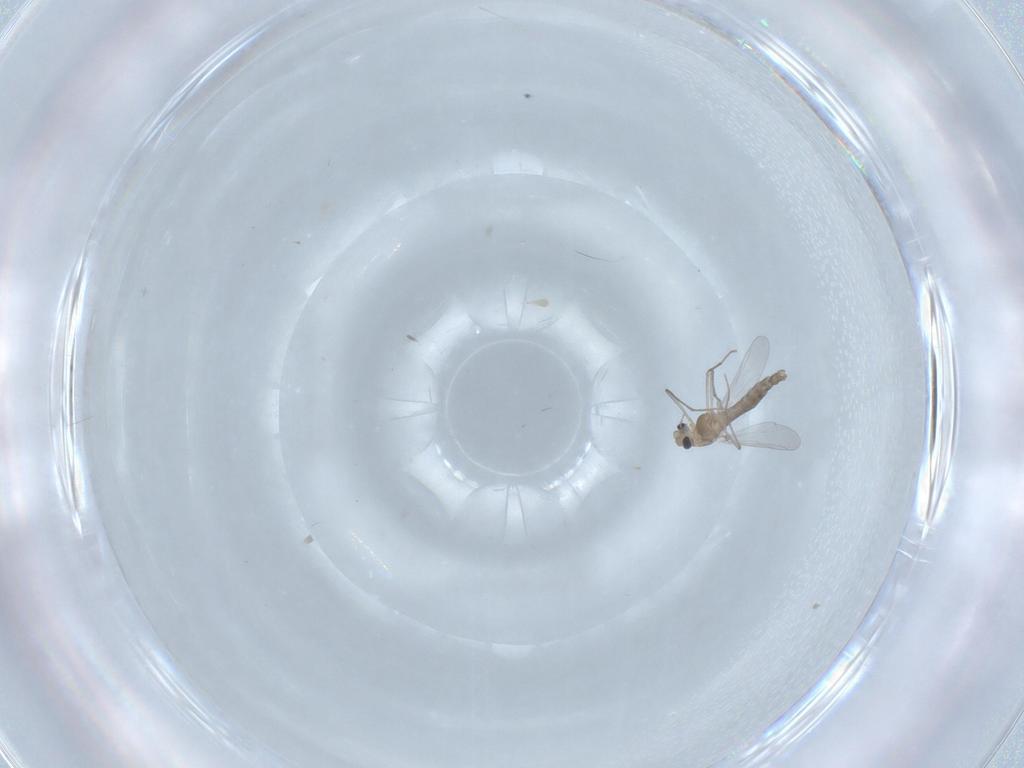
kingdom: Animalia
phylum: Arthropoda
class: Insecta
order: Diptera
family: Chironomidae
